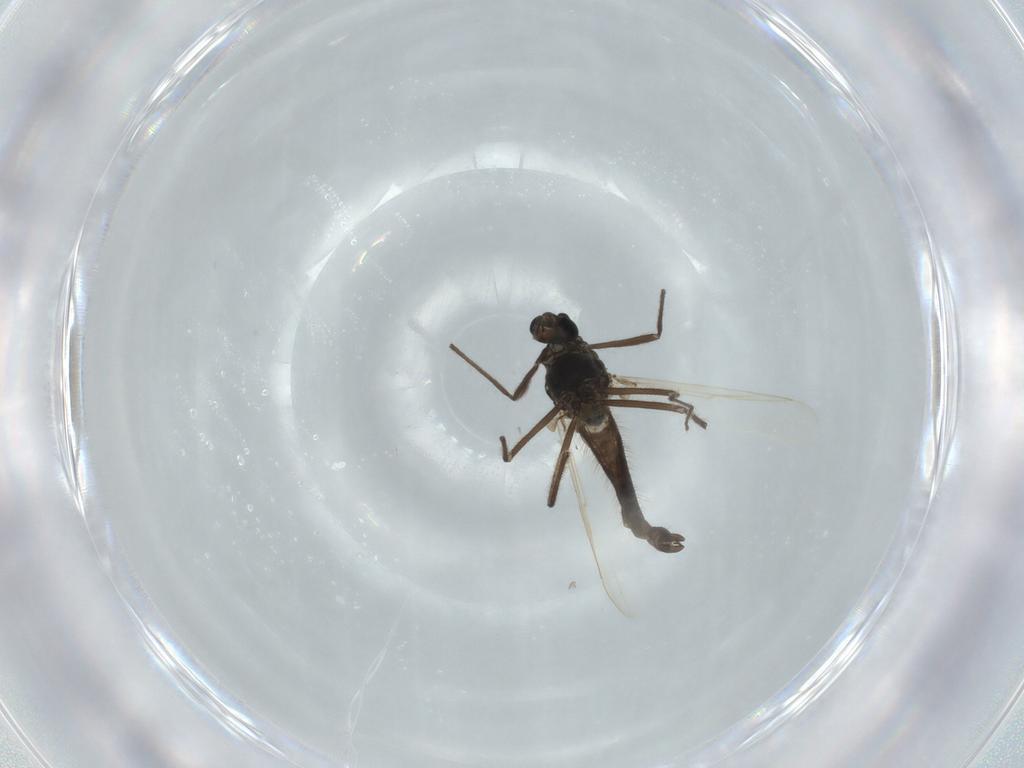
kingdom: Animalia
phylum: Arthropoda
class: Insecta
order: Diptera
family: Chironomidae
